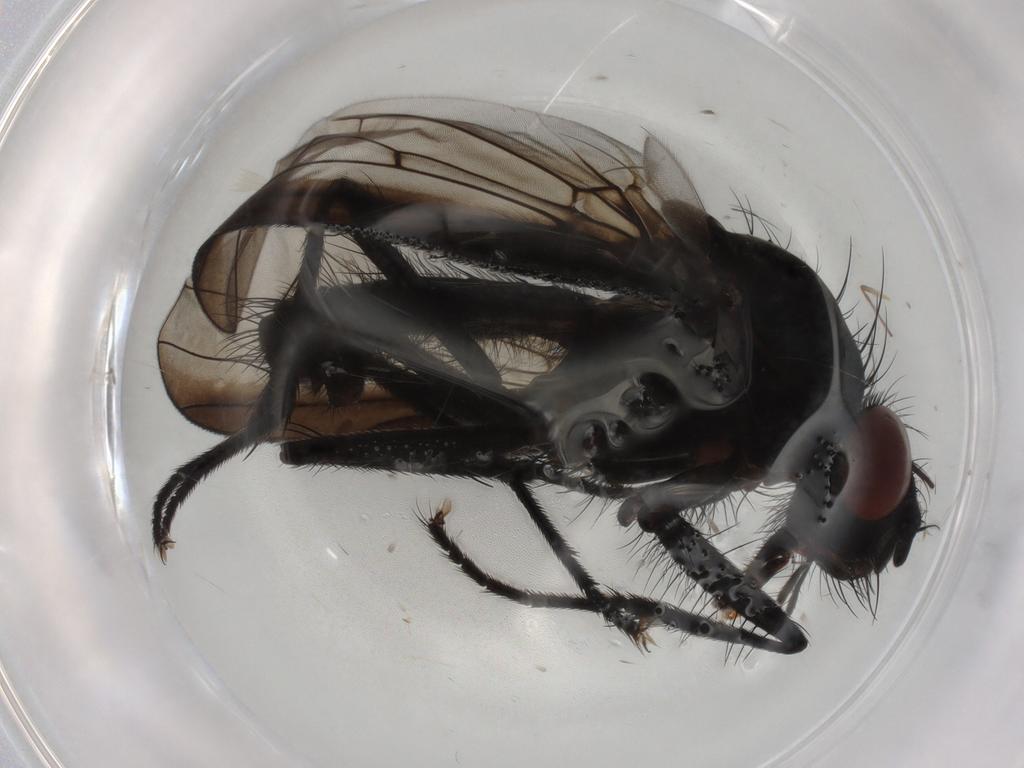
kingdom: Animalia
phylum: Arthropoda
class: Insecta
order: Diptera
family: Anthomyiidae
